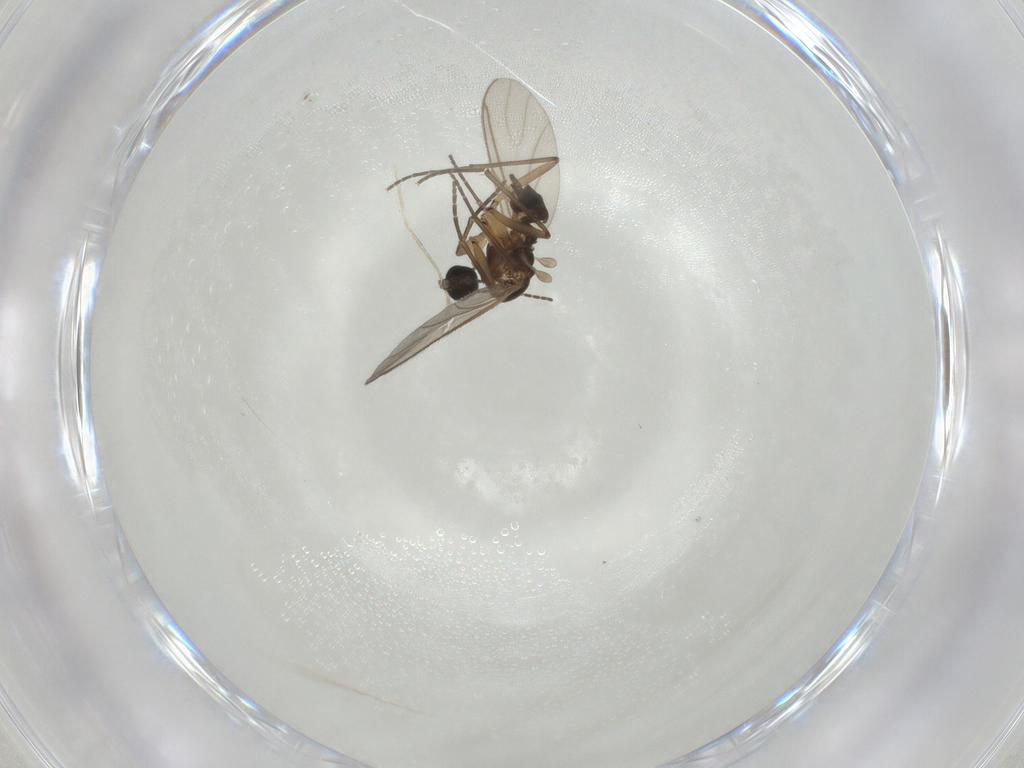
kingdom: Animalia
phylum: Arthropoda
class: Insecta
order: Diptera
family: Sciaridae
